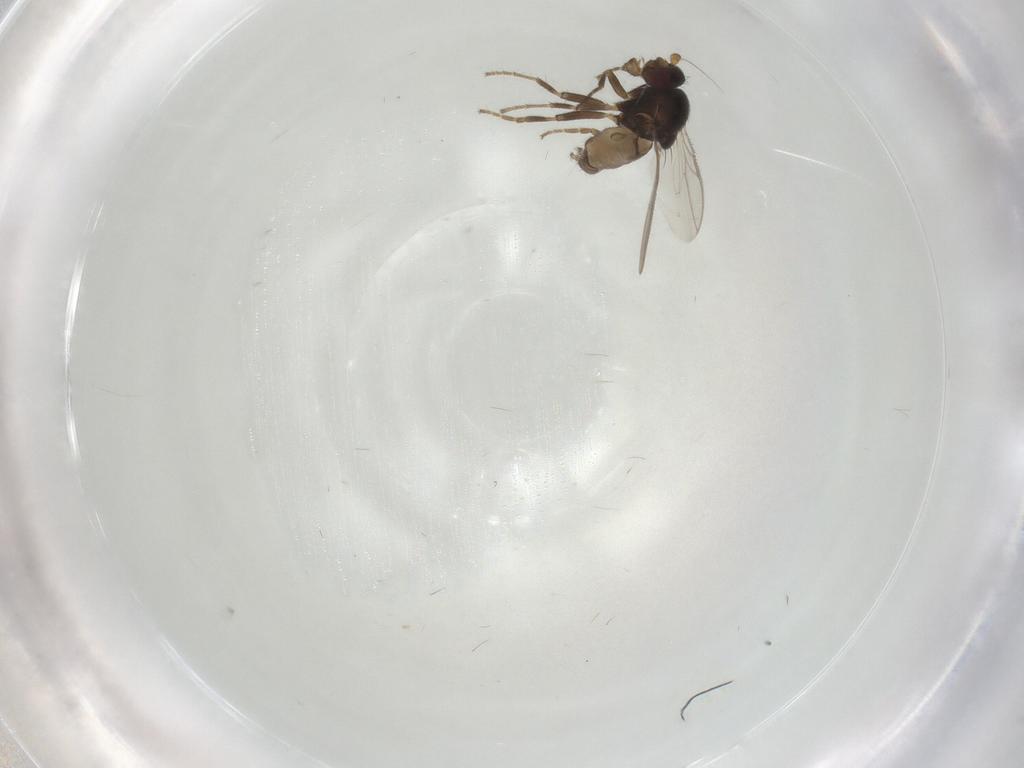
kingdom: Animalia
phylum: Arthropoda
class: Insecta
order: Diptera
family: Sphaeroceridae
